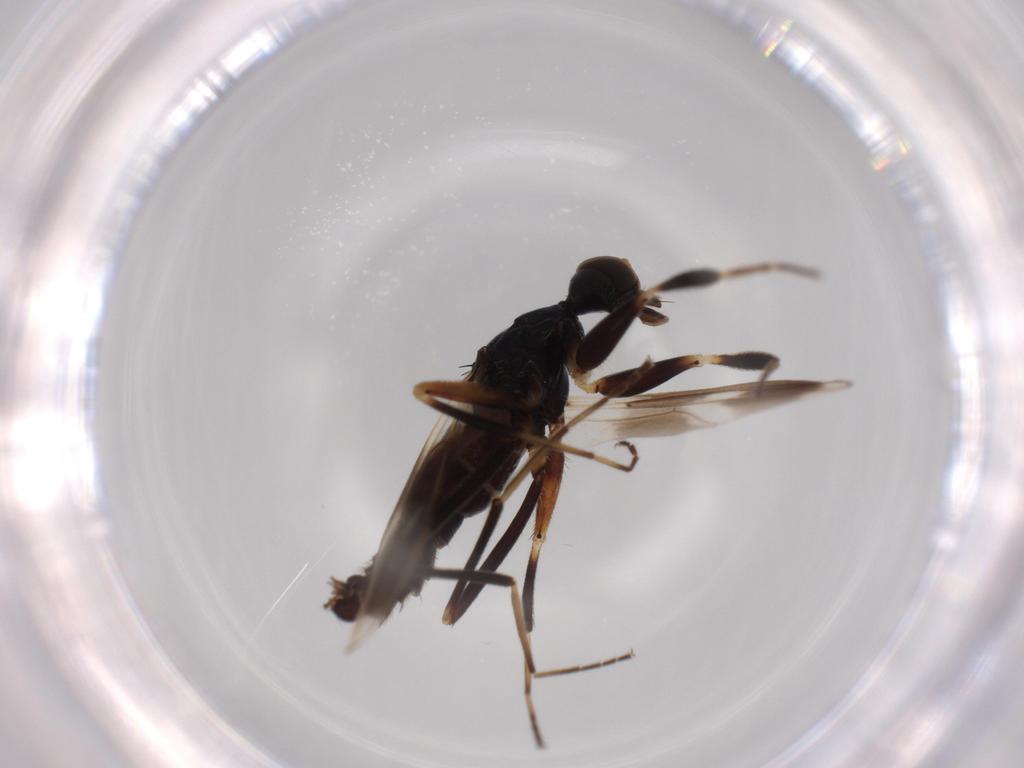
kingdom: Animalia
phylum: Arthropoda
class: Insecta
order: Diptera
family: Hybotidae
